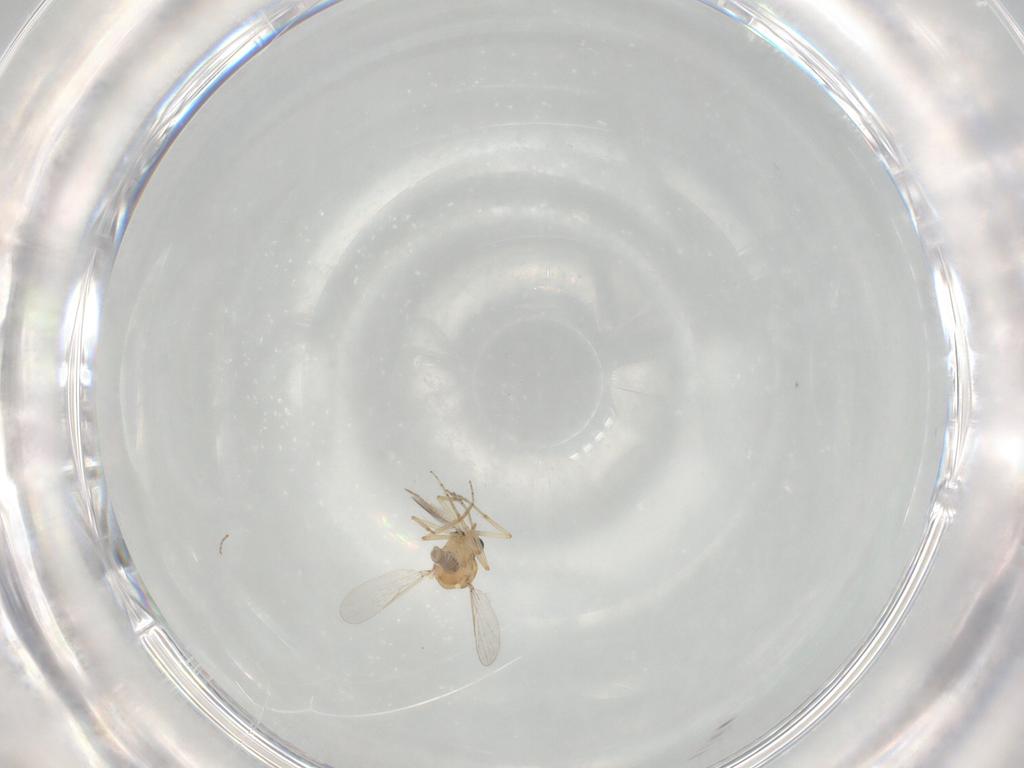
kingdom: Animalia
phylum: Arthropoda
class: Insecta
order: Diptera
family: Ceratopogonidae
